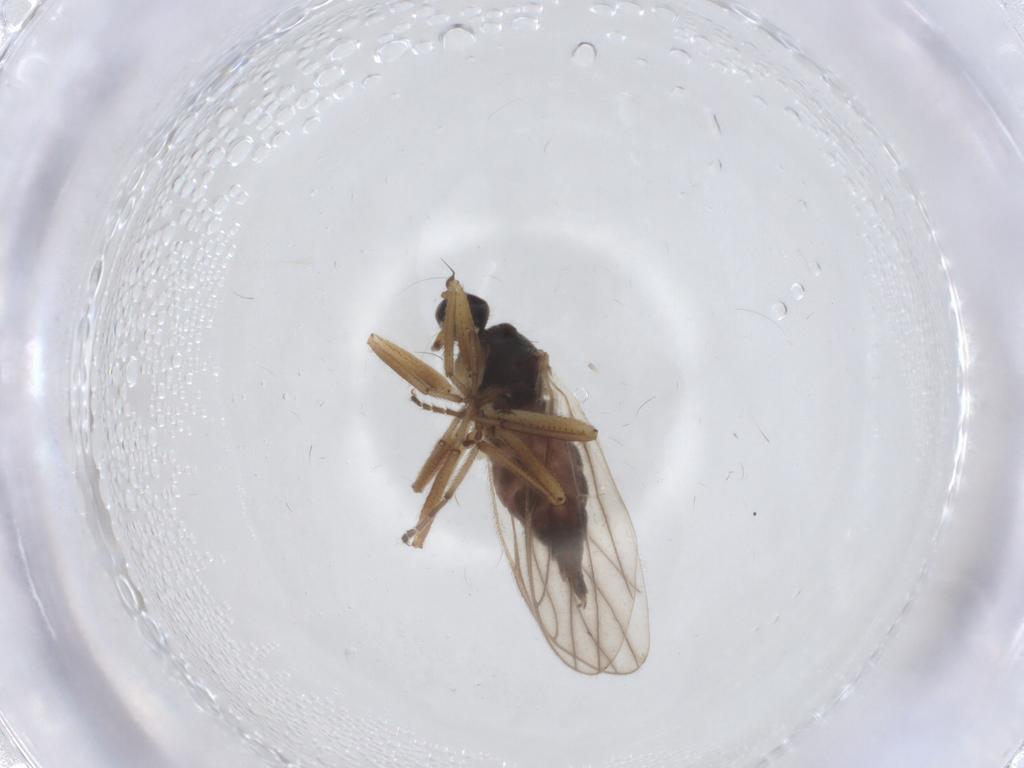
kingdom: Animalia
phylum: Arthropoda
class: Insecta
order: Diptera
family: Hybotidae
